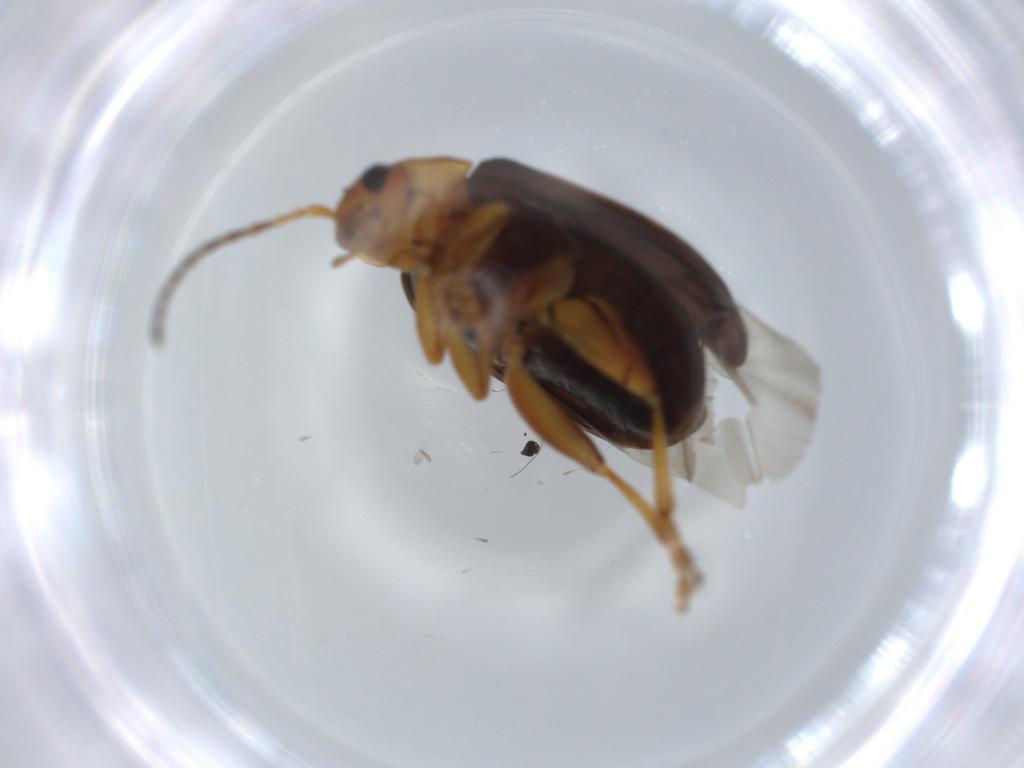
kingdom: Animalia
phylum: Arthropoda
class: Insecta
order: Coleoptera
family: Chrysomelidae
